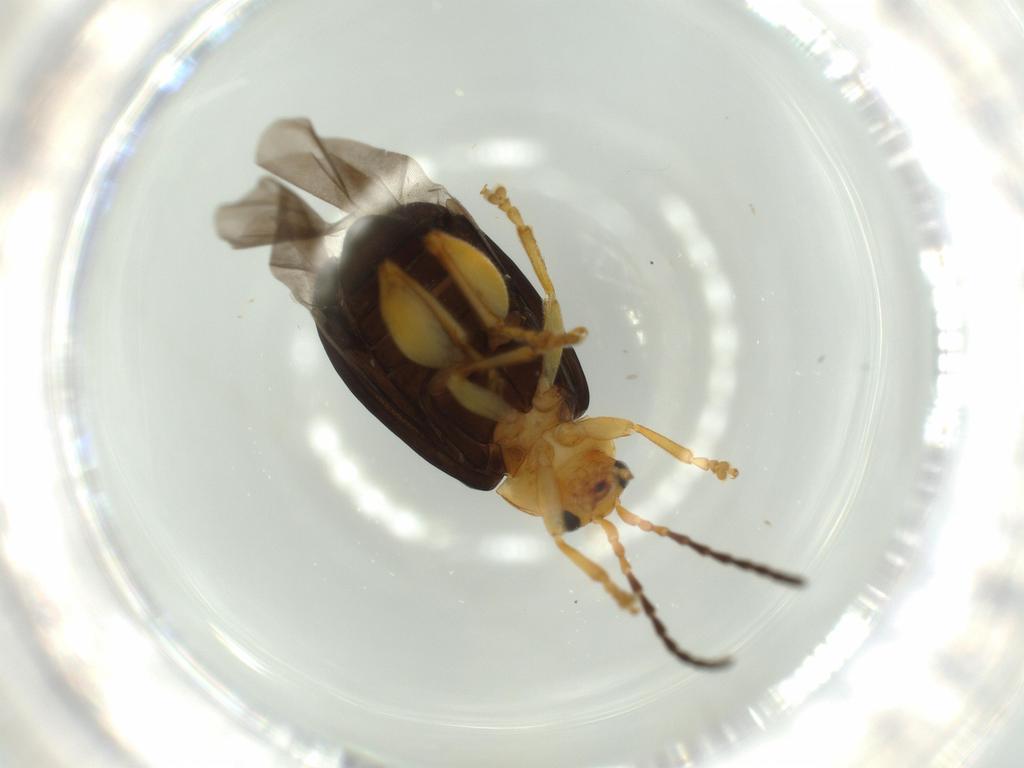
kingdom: Animalia
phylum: Arthropoda
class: Insecta
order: Coleoptera
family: Chrysomelidae
